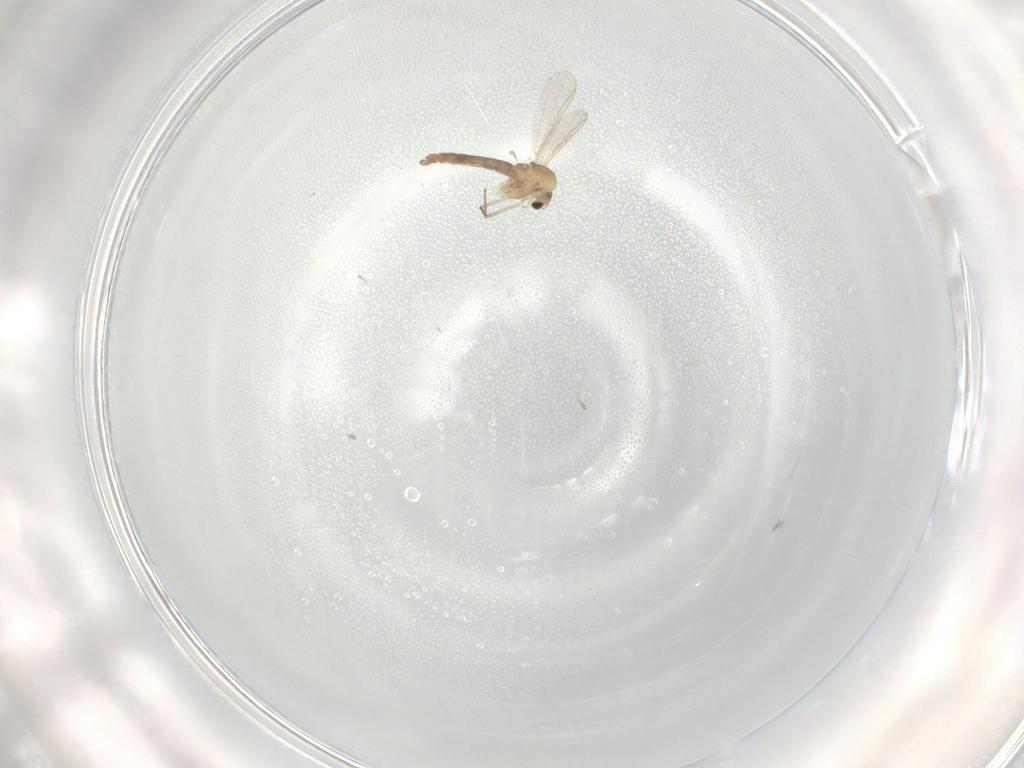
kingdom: Animalia
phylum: Arthropoda
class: Insecta
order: Diptera
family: Chironomidae
